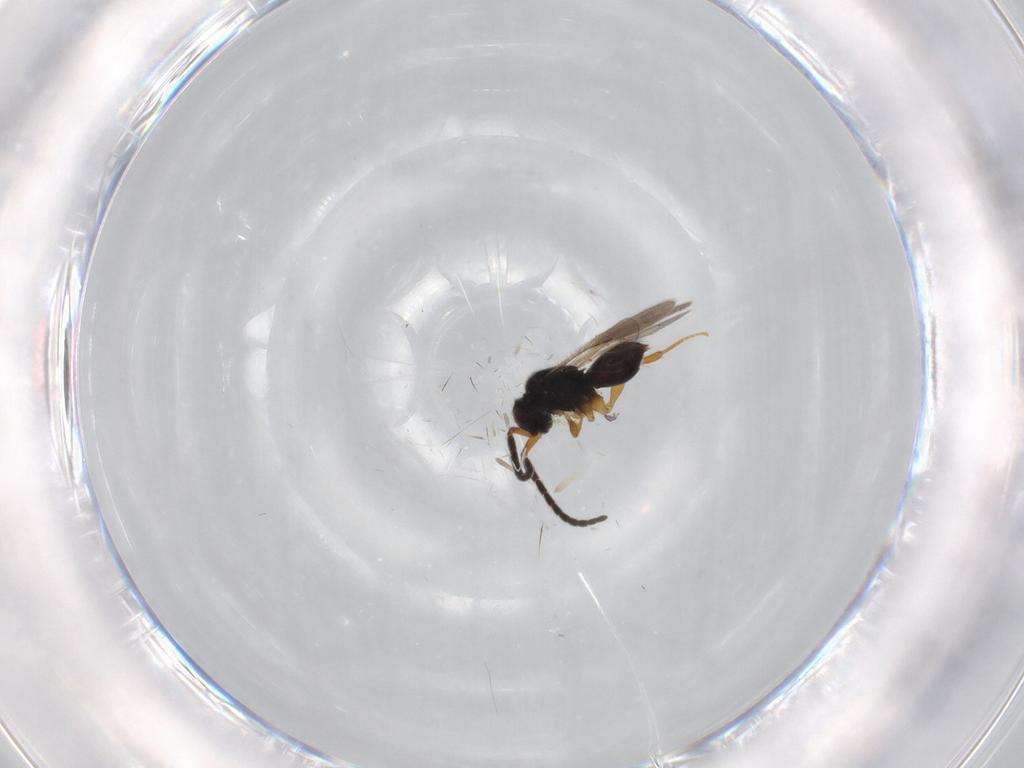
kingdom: Animalia
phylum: Arthropoda
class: Insecta
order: Hymenoptera
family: Scelionidae
